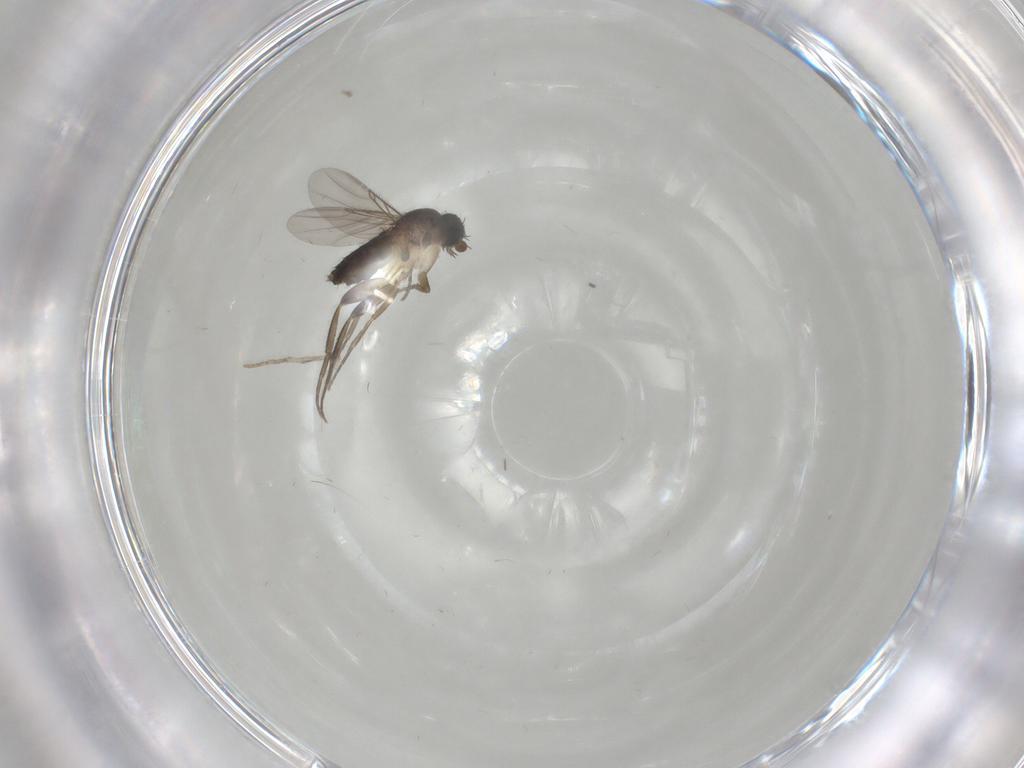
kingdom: Animalia
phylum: Arthropoda
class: Insecta
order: Diptera
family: Phoridae
